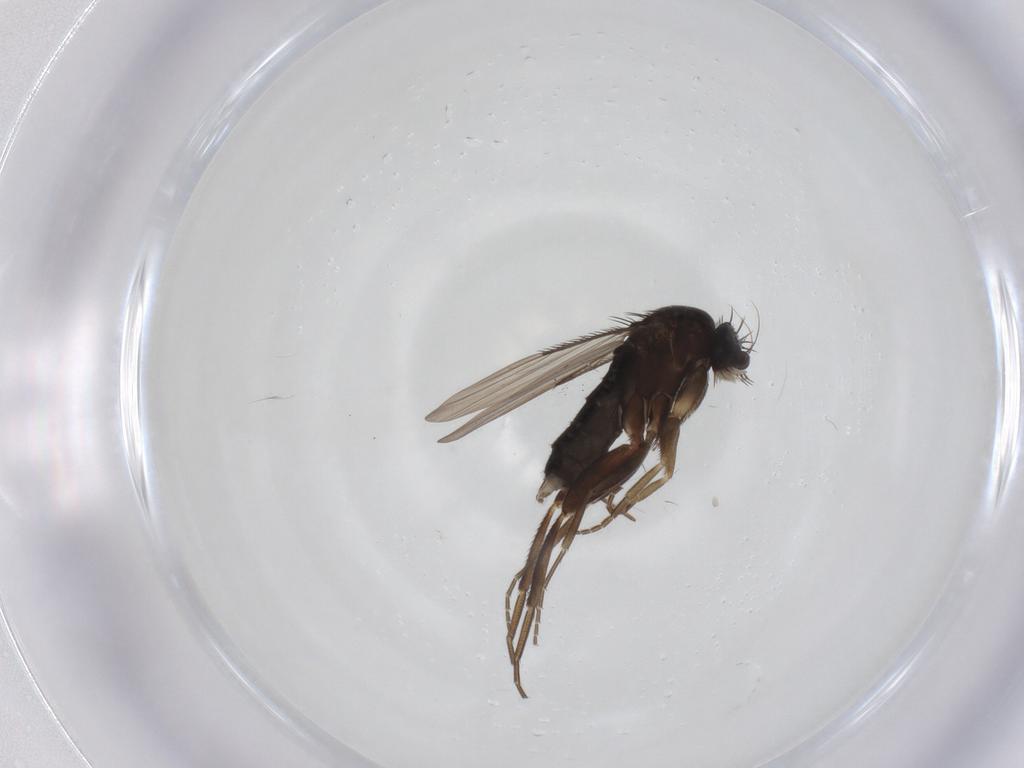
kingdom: Animalia
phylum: Arthropoda
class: Insecta
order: Diptera
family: Phoridae
